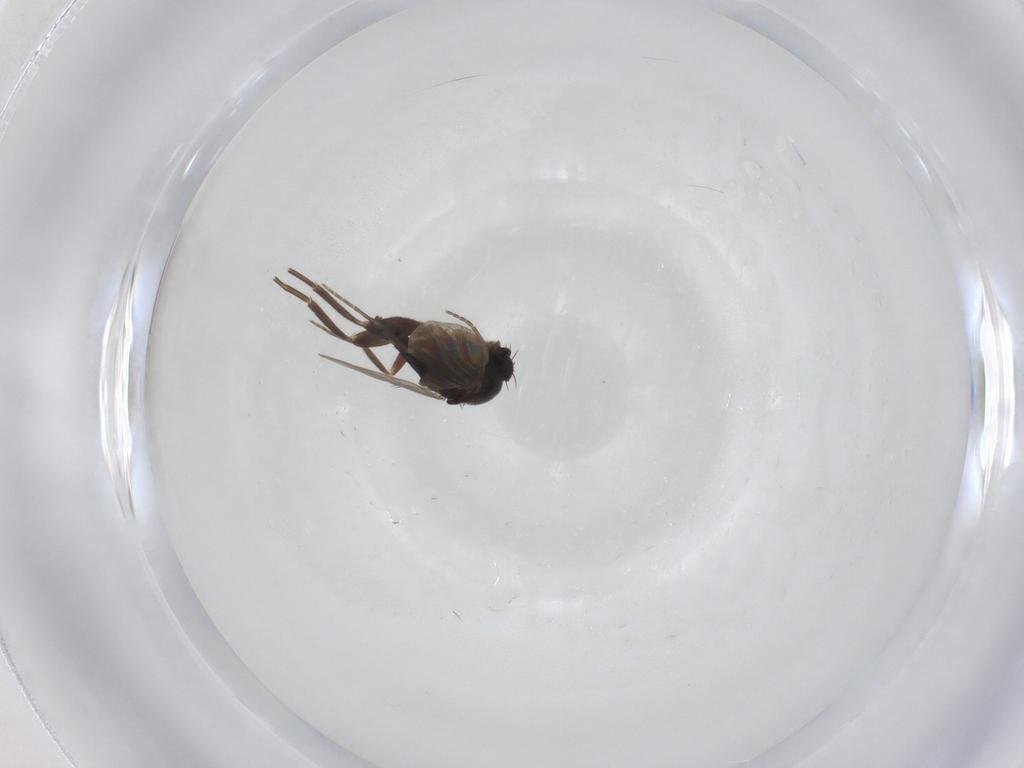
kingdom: Animalia
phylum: Arthropoda
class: Insecta
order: Diptera
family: Phoridae
